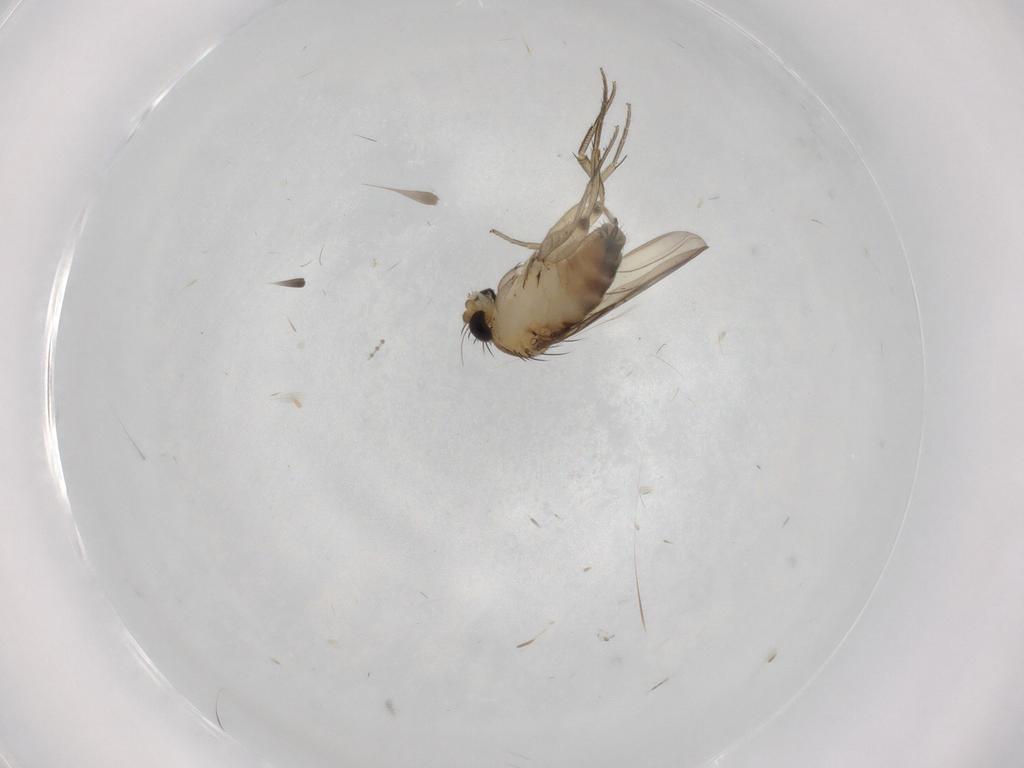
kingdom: Animalia
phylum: Arthropoda
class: Insecta
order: Diptera
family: Phoridae
